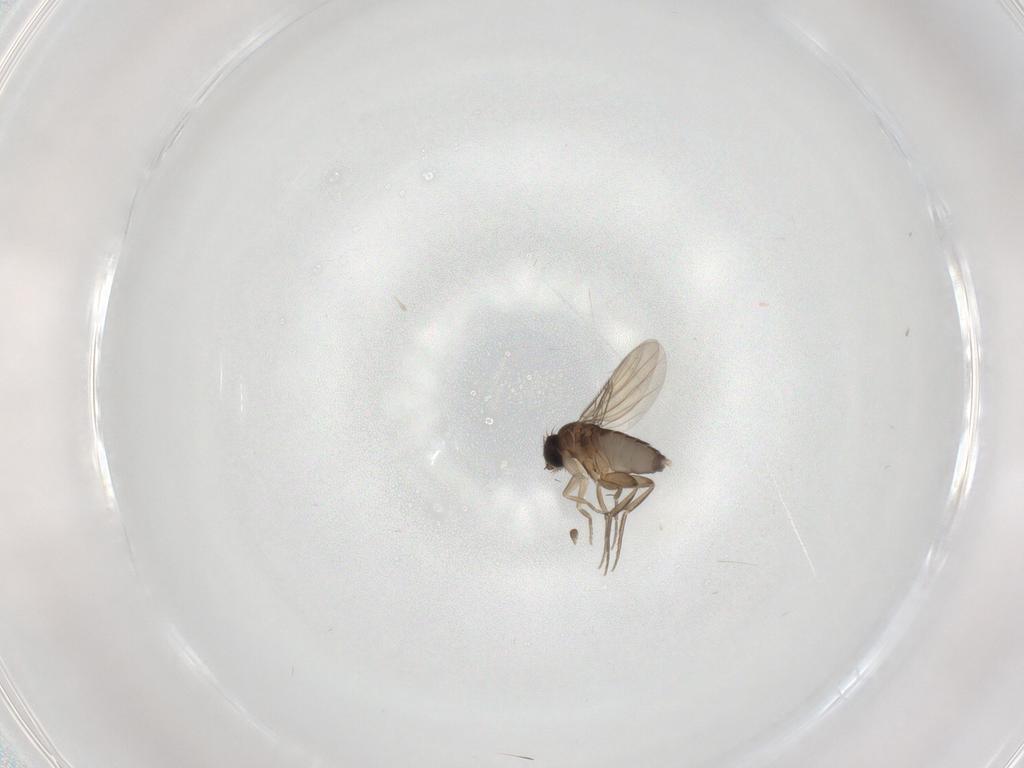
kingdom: Animalia
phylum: Arthropoda
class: Insecta
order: Diptera
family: Phoridae
